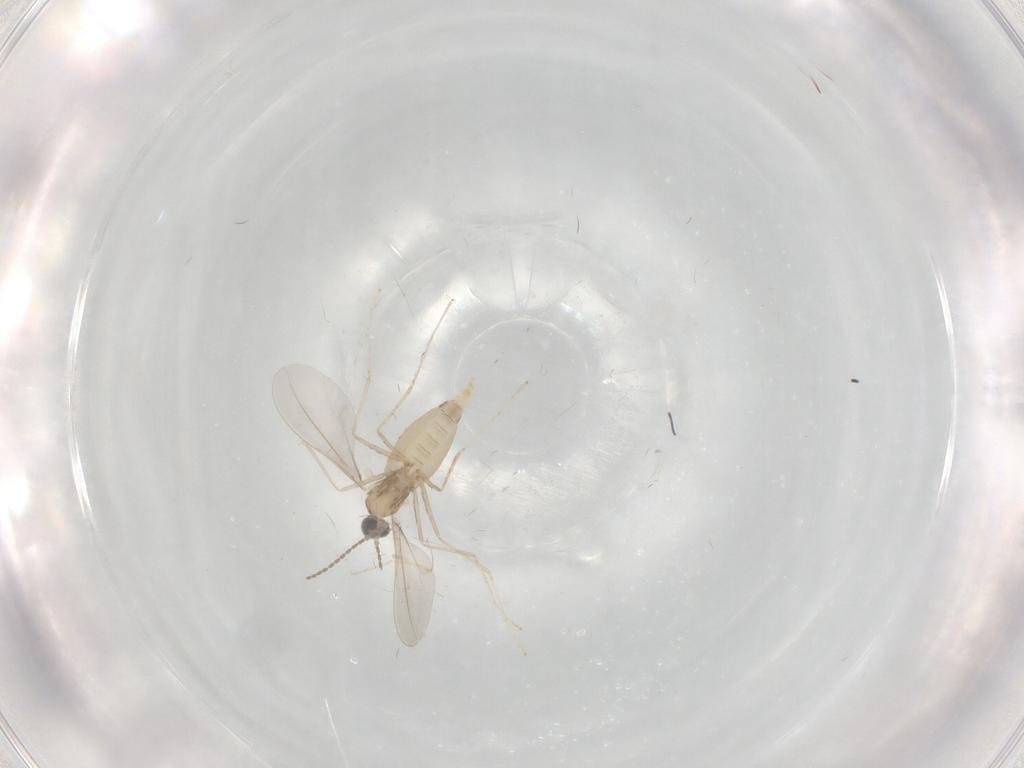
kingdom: Animalia
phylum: Arthropoda
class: Insecta
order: Diptera
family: Cecidomyiidae
